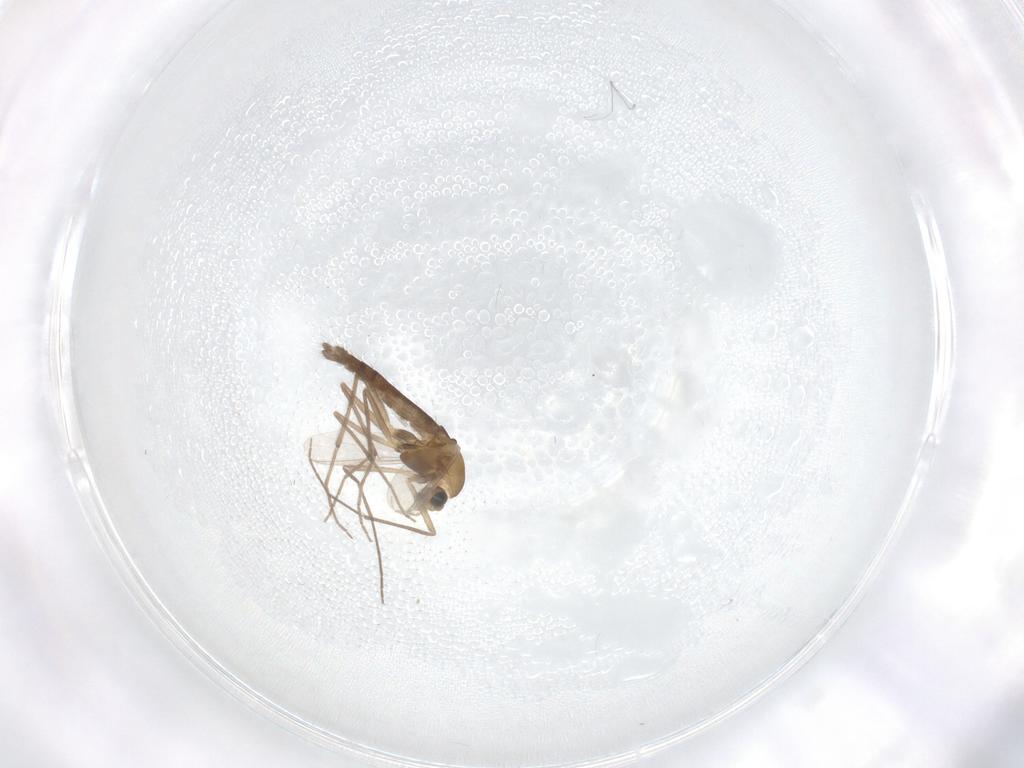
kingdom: Animalia
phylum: Arthropoda
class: Insecta
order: Diptera
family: Chironomidae
